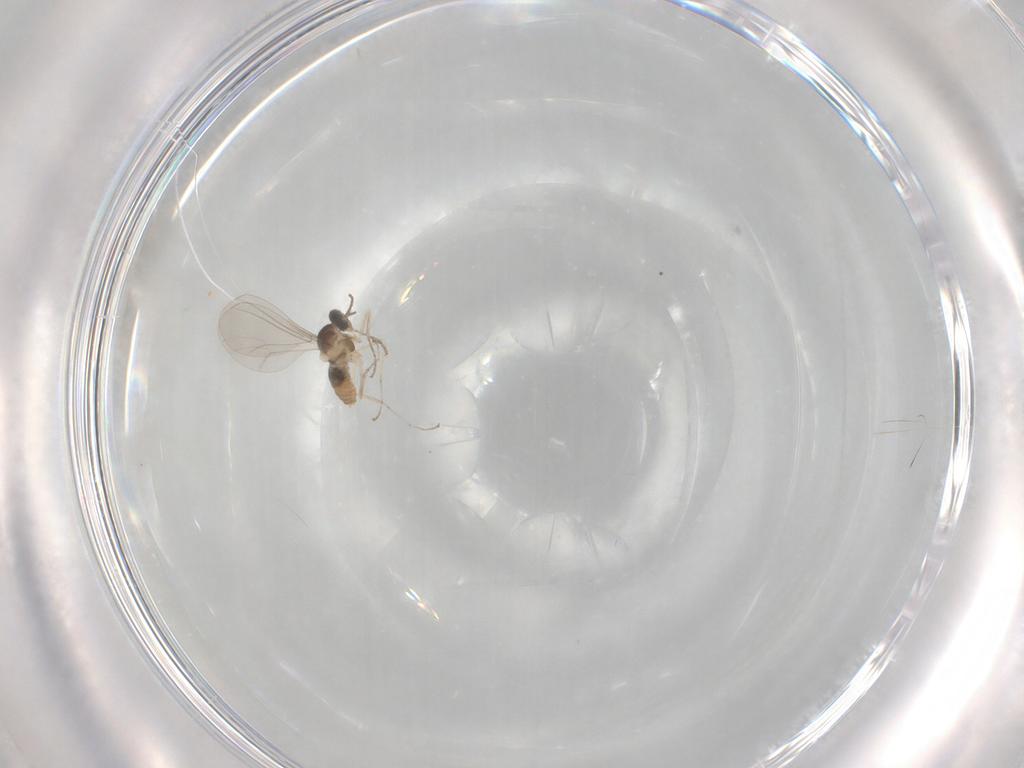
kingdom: Animalia
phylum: Arthropoda
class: Insecta
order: Diptera
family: Cecidomyiidae
